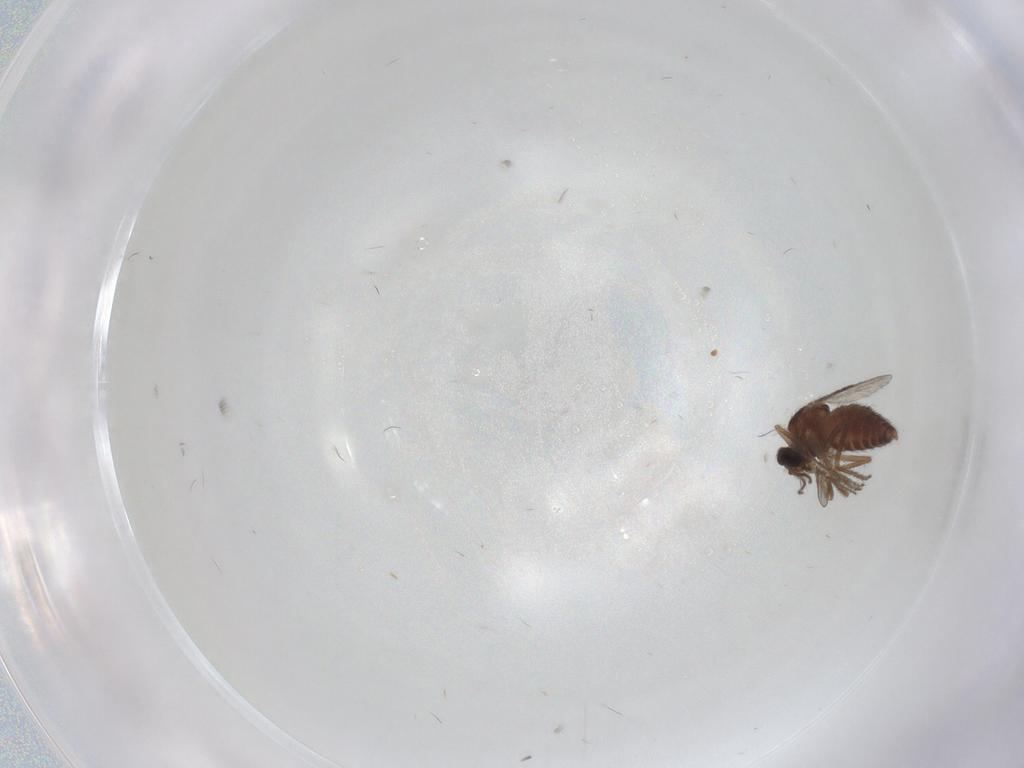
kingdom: Animalia
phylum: Arthropoda
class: Insecta
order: Diptera
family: Ceratopogonidae
